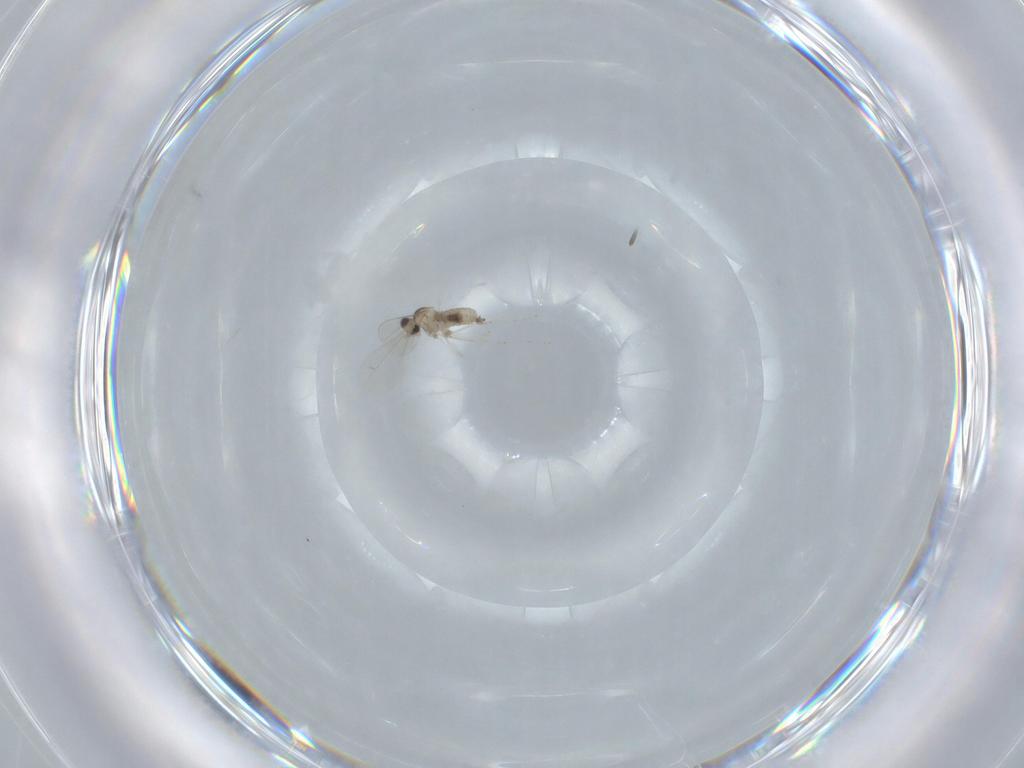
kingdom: Animalia
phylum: Arthropoda
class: Insecta
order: Diptera
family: Cecidomyiidae
